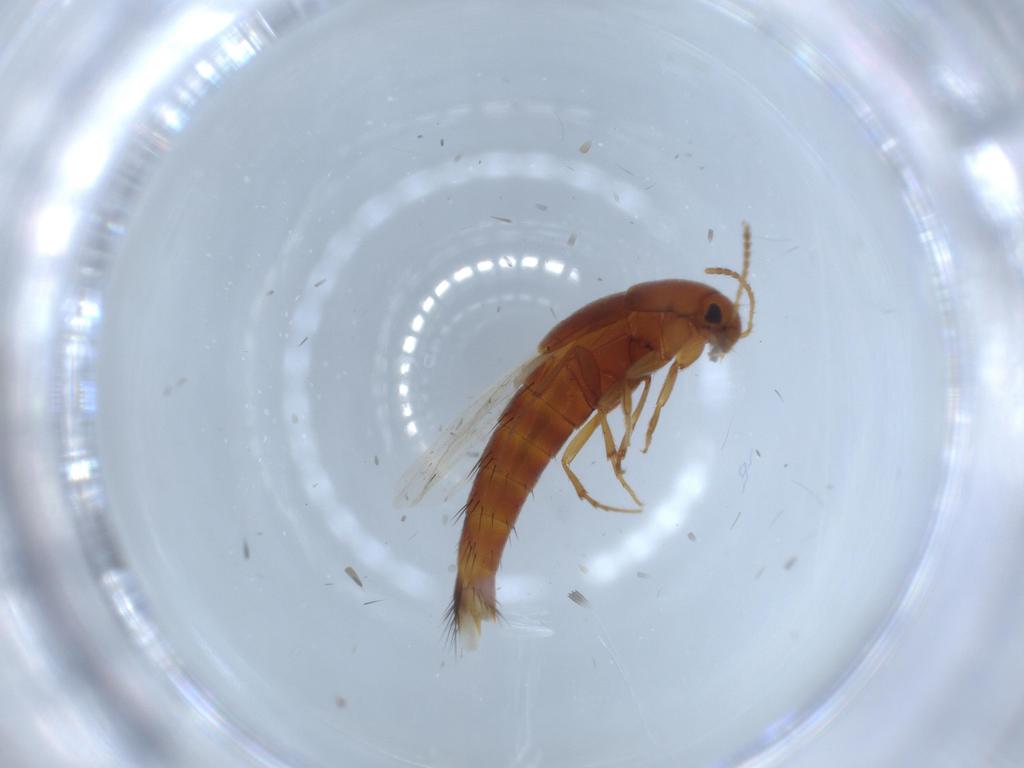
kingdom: Animalia
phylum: Arthropoda
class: Insecta
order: Coleoptera
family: Staphylinidae
